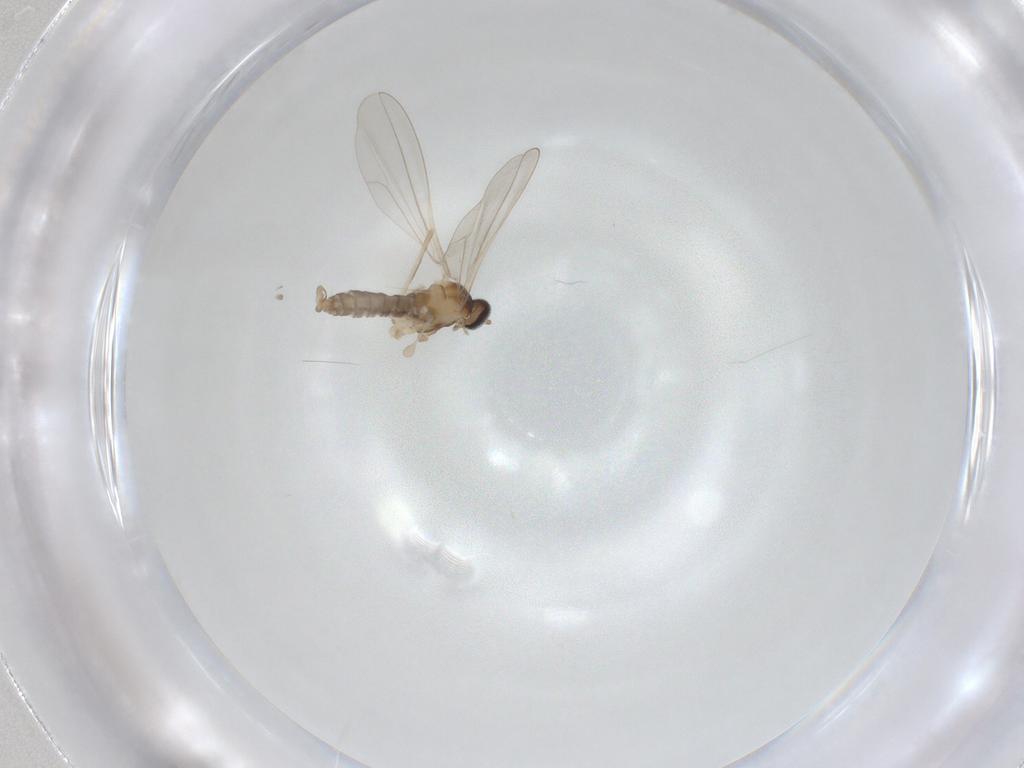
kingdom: Animalia
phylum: Arthropoda
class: Insecta
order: Diptera
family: Cecidomyiidae
